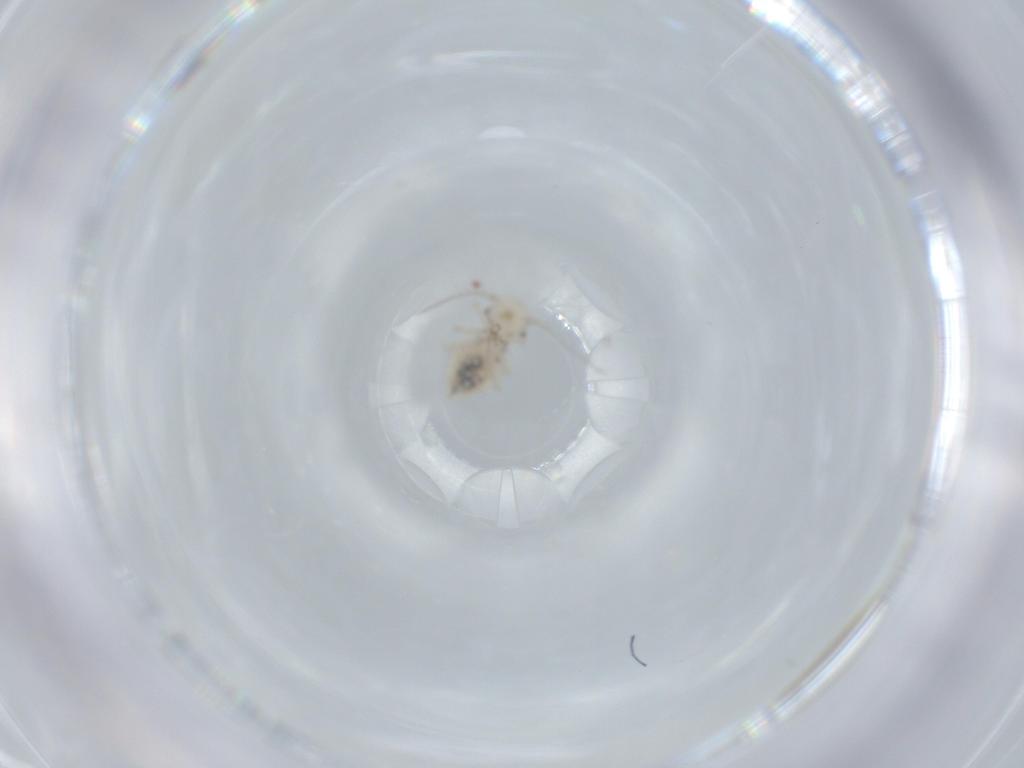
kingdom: Animalia
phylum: Arthropoda
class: Insecta
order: Psocodea
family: Pseudocaeciliidae
